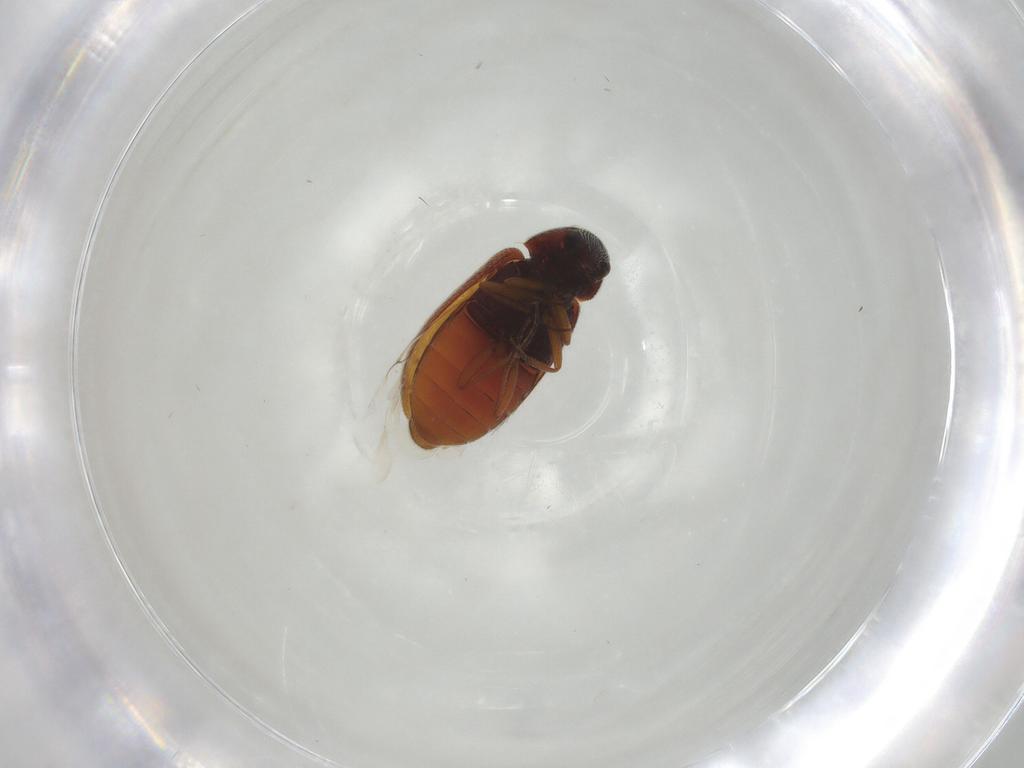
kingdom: Animalia
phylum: Arthropoda
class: Insecta
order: Coleoptera
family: Rhadalidae
